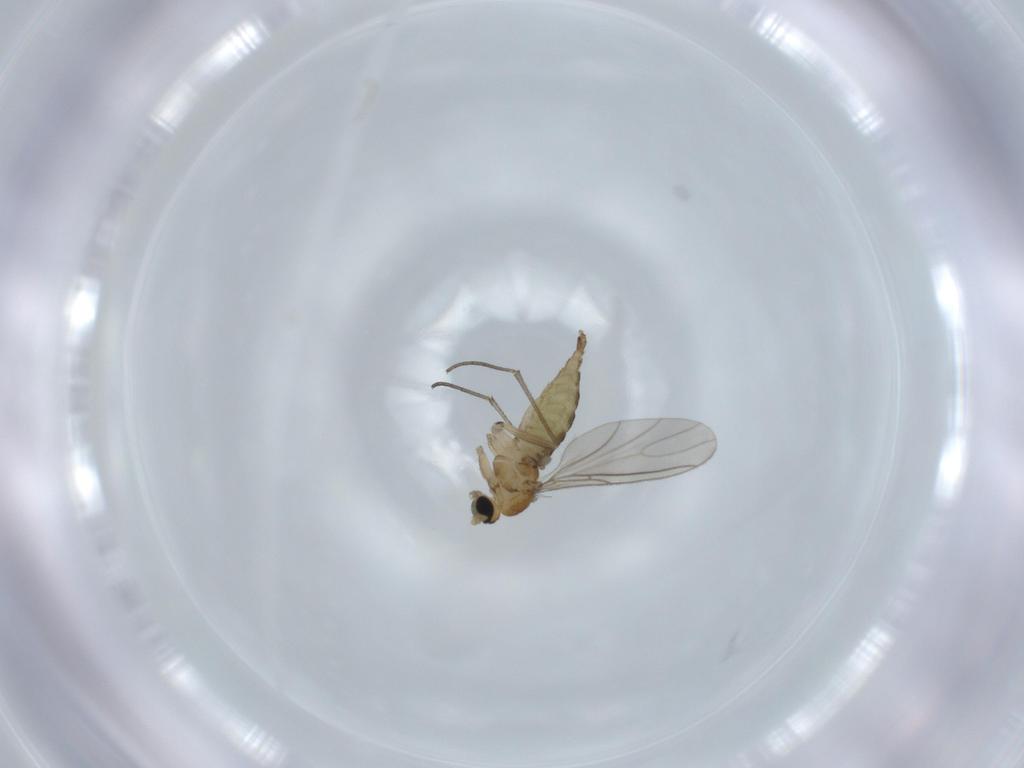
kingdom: Animalia
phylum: Arthropoda
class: Insecta
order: Diptera
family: Sciaridae
